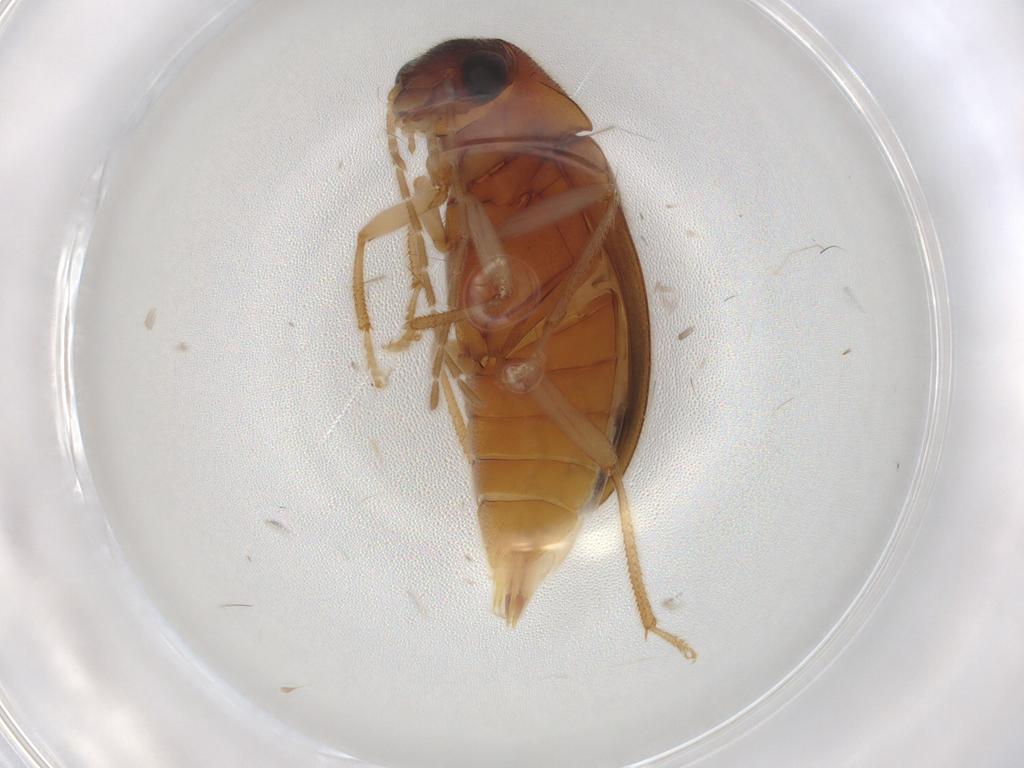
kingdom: Animalia
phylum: Arthropoda
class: Insecta
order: Coleoptera
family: Ptilodactylidae
